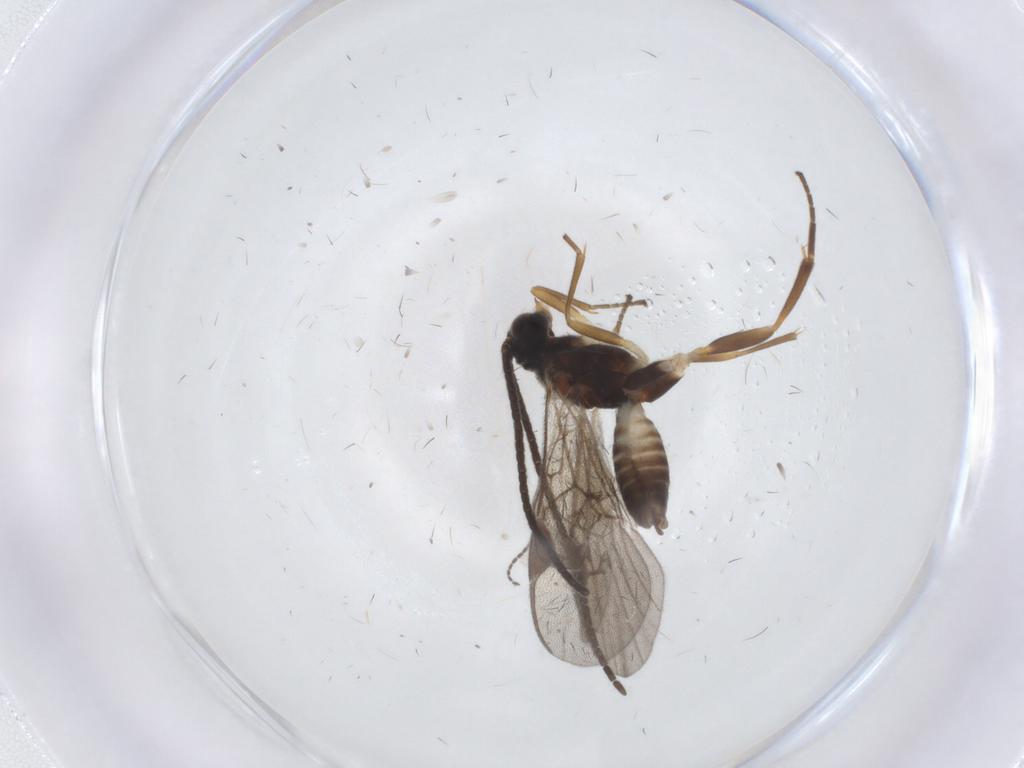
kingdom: Animalia
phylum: Arthropoda
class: Insecta
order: Hymenoptera
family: Braconidae
